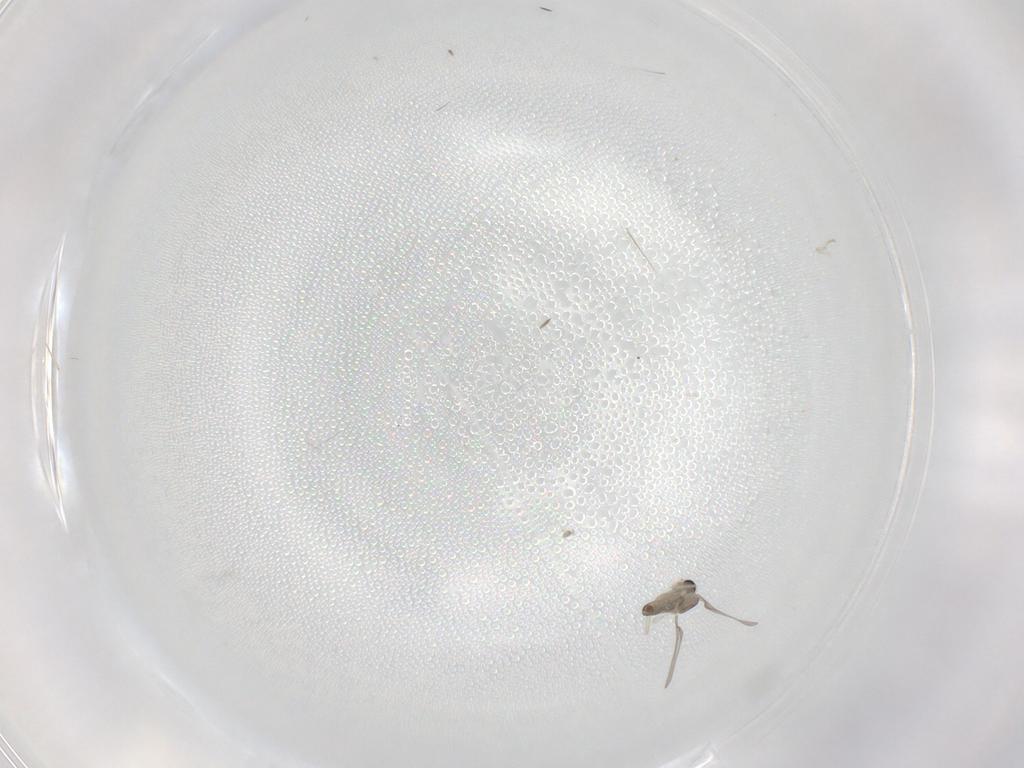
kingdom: Animalia
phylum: Arthropoda
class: Insecta
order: Diptera
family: Cecidomyiidae
